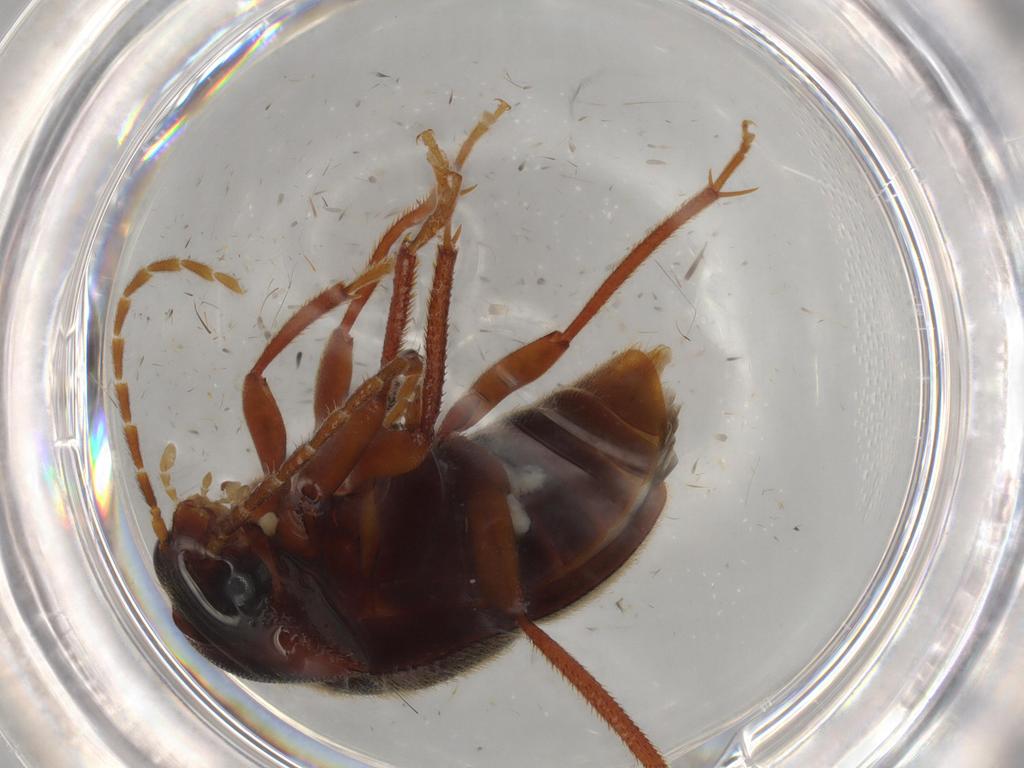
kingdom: Animalia
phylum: Arthropoda
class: Insecta
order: Coleoptera
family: Ptilodactylidae
